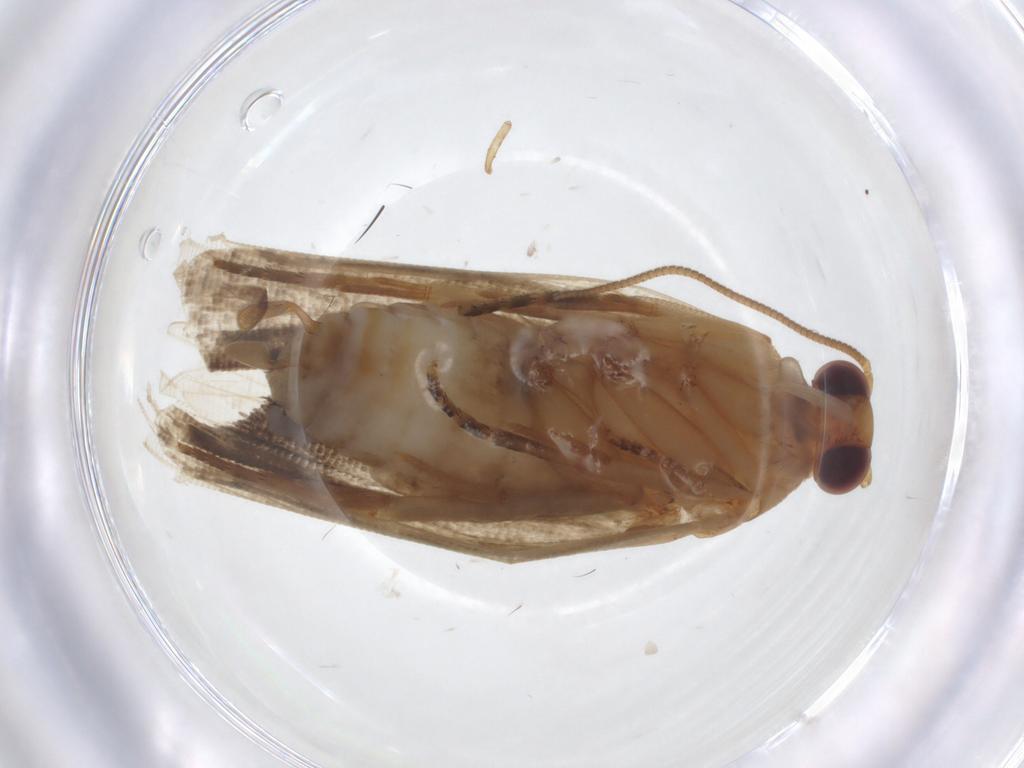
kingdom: Animalia
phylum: Arthropoda
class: Insecta
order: Lepidoptera
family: Tortricidae
